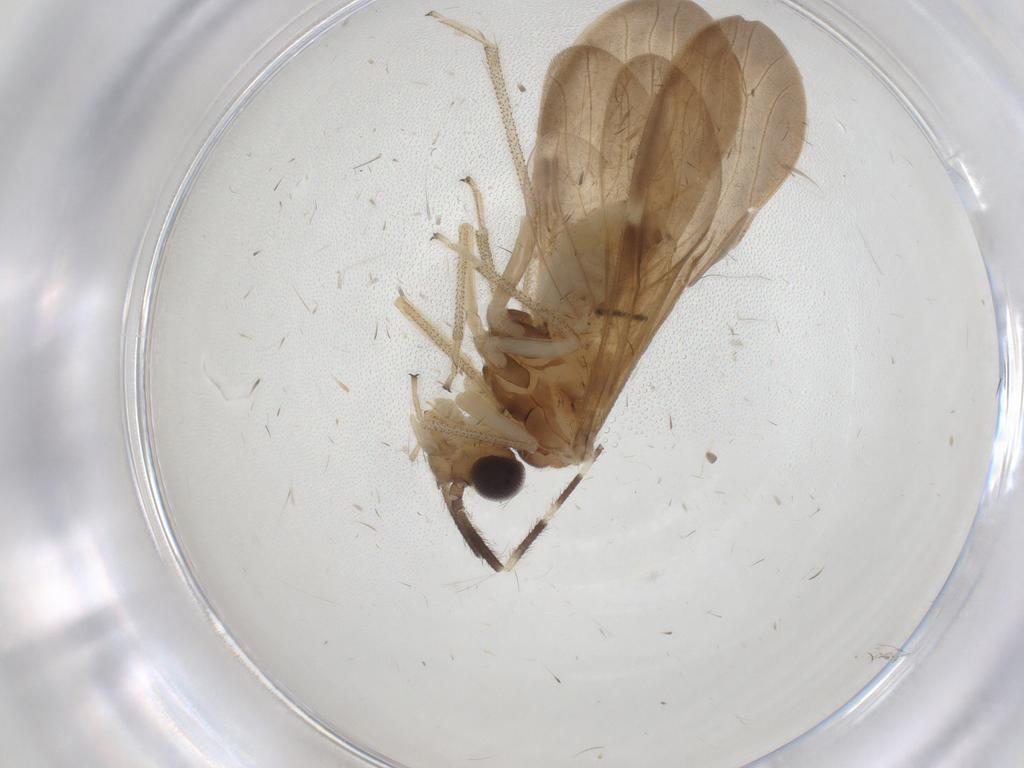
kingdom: Animalia
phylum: Arthropoda
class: Insecta
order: Psocodea
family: Amphipsocidae
